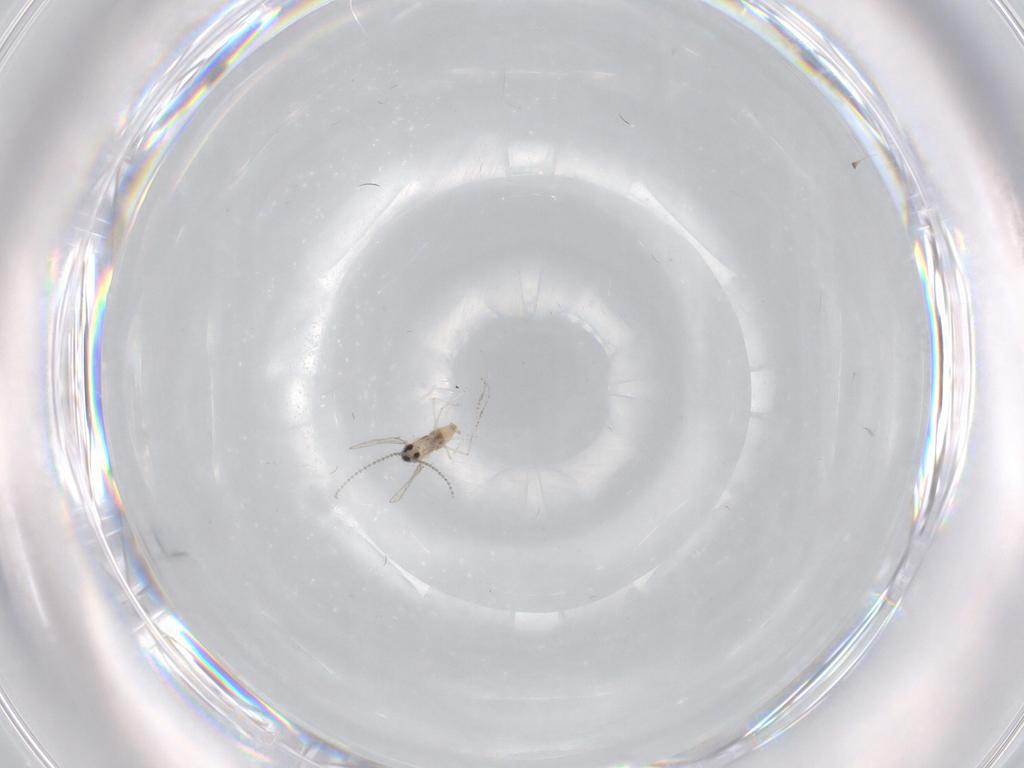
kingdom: Animalia
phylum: Arthropoda
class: Insecta
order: Diptera
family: Cecidomyiidae
